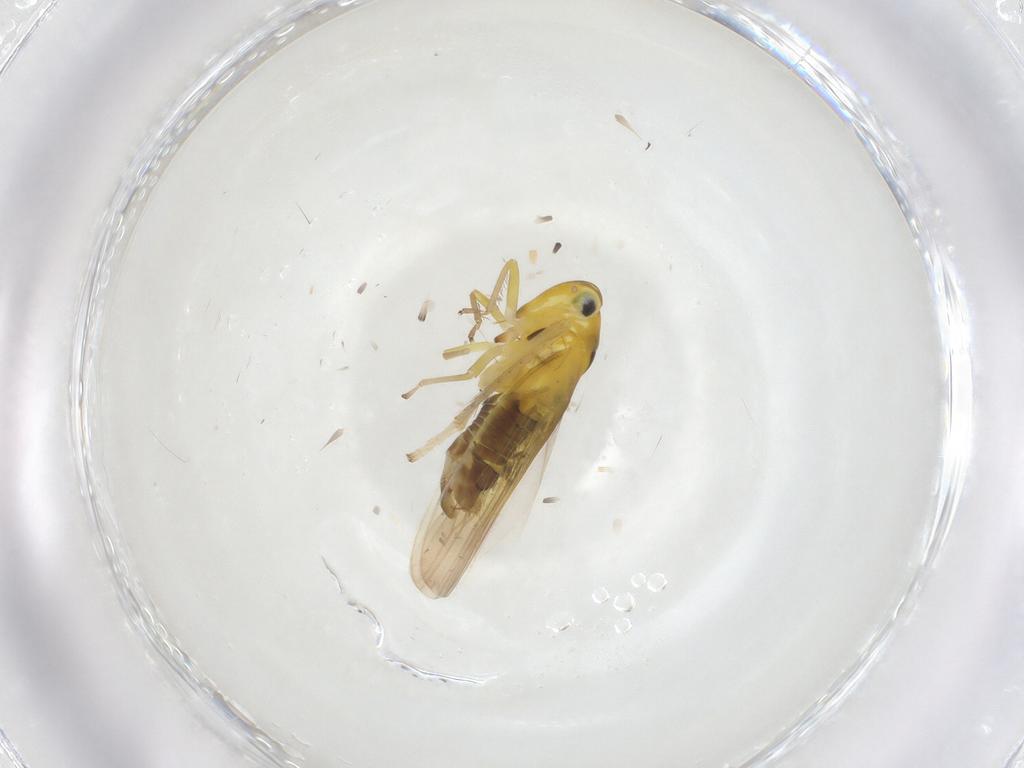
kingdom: Animalia
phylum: Arthropoda
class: Insecta
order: Hemiptera
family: Cicadellidae
